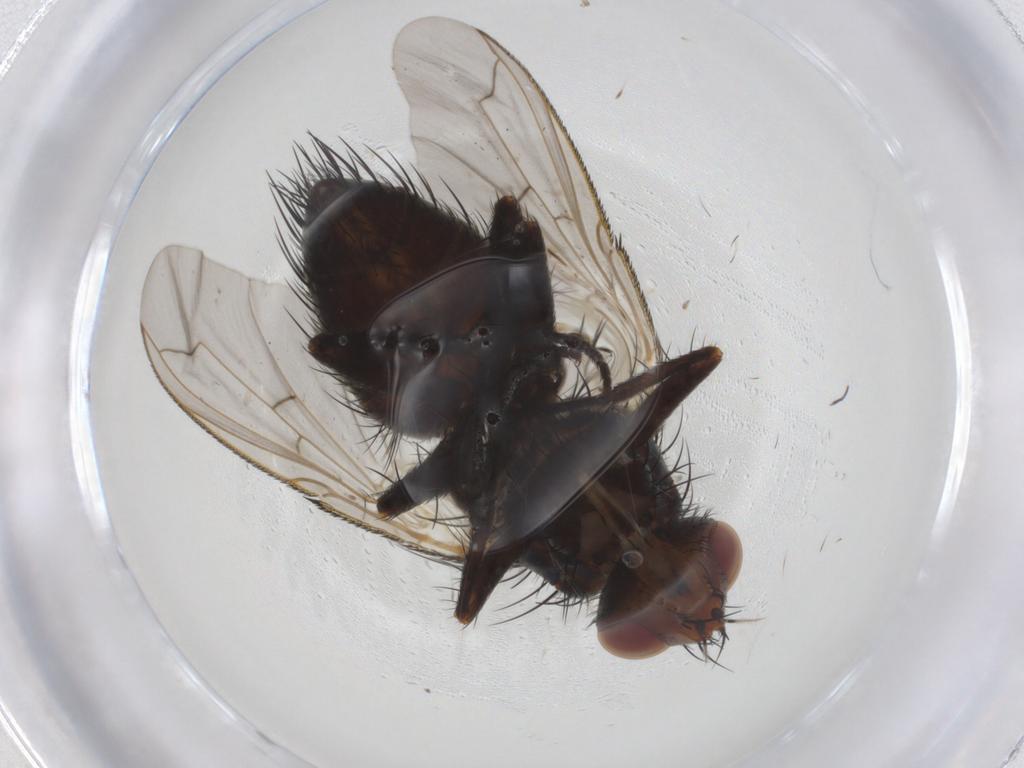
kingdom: Animalia
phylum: Arthropoda
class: Insecta
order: Diptera
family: Tachinidae
